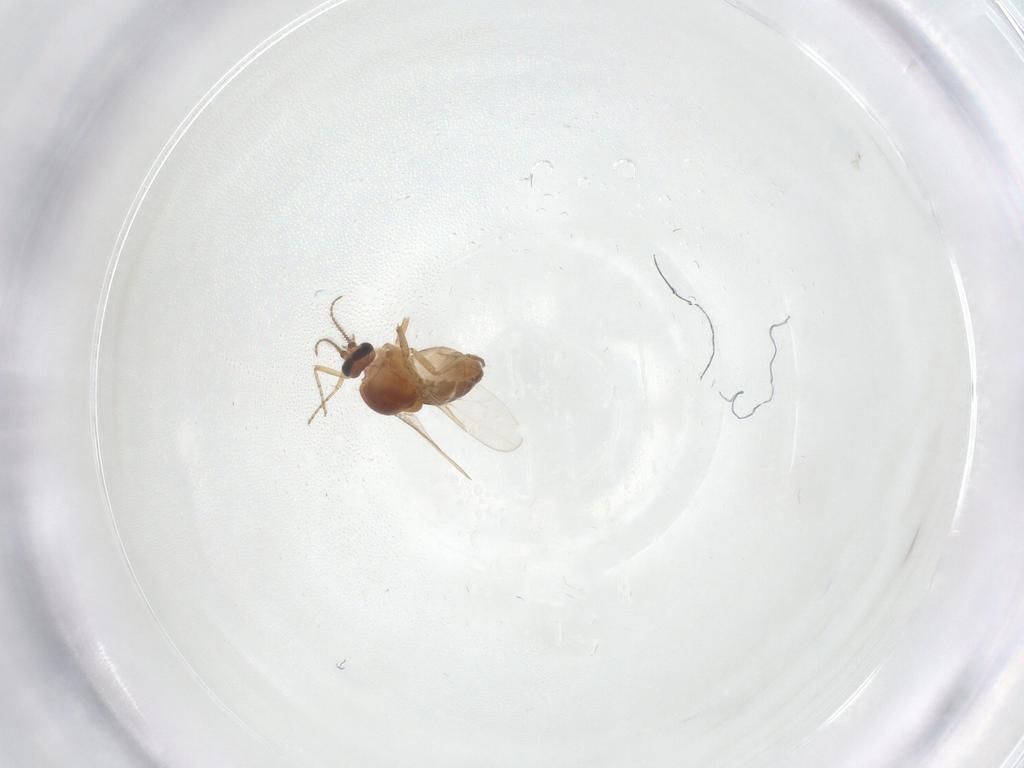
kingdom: Animalia
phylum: Arthropoda
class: Insecta
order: Diptera
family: Ceratopogonidae
